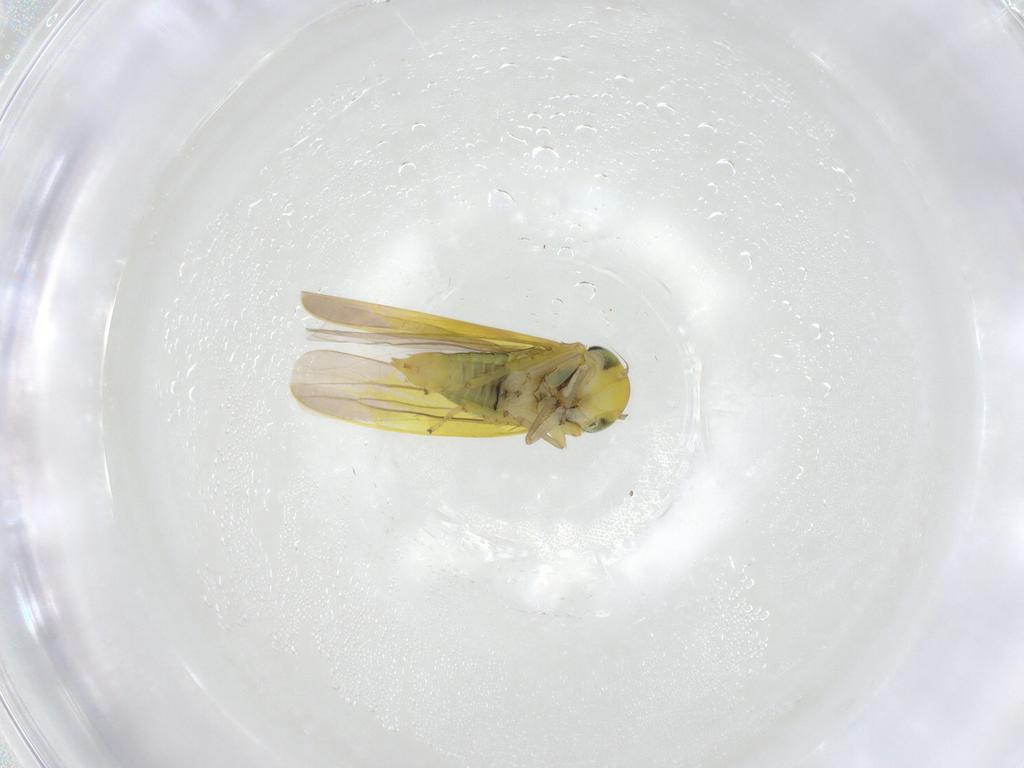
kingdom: Animalia
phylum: Arthropoda
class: Insecta
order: Hemiptera
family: Cicadellidae
